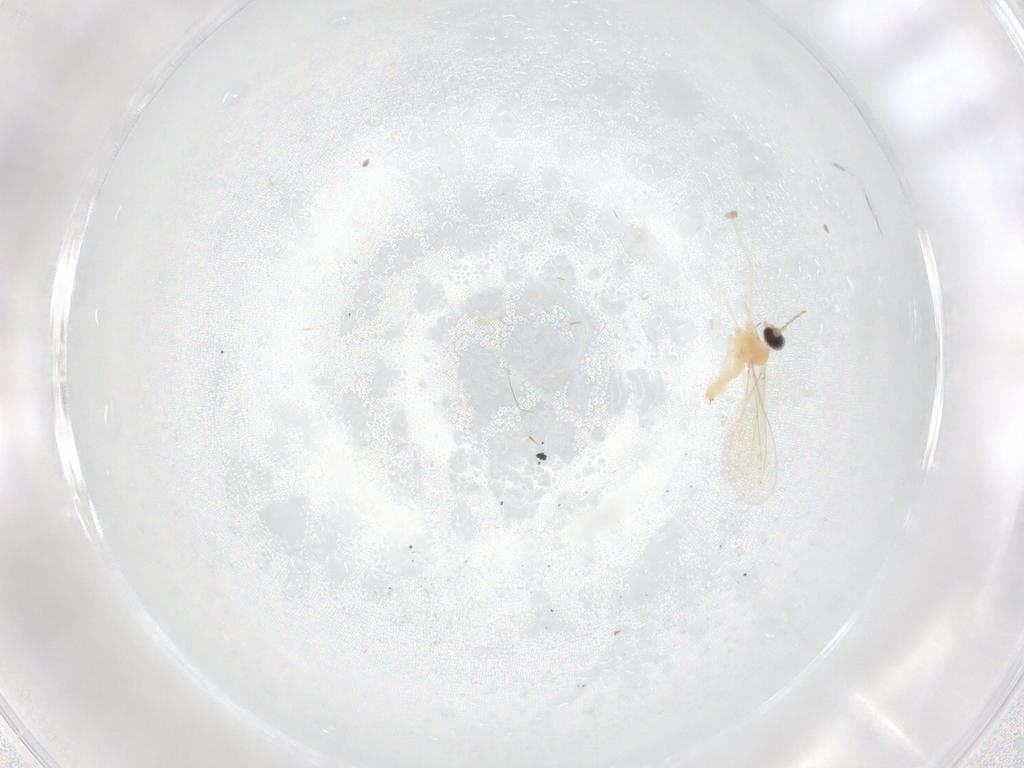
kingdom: Animalia
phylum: Arthropoda
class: Insecta
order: Diptera
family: Cecidomyiidae
